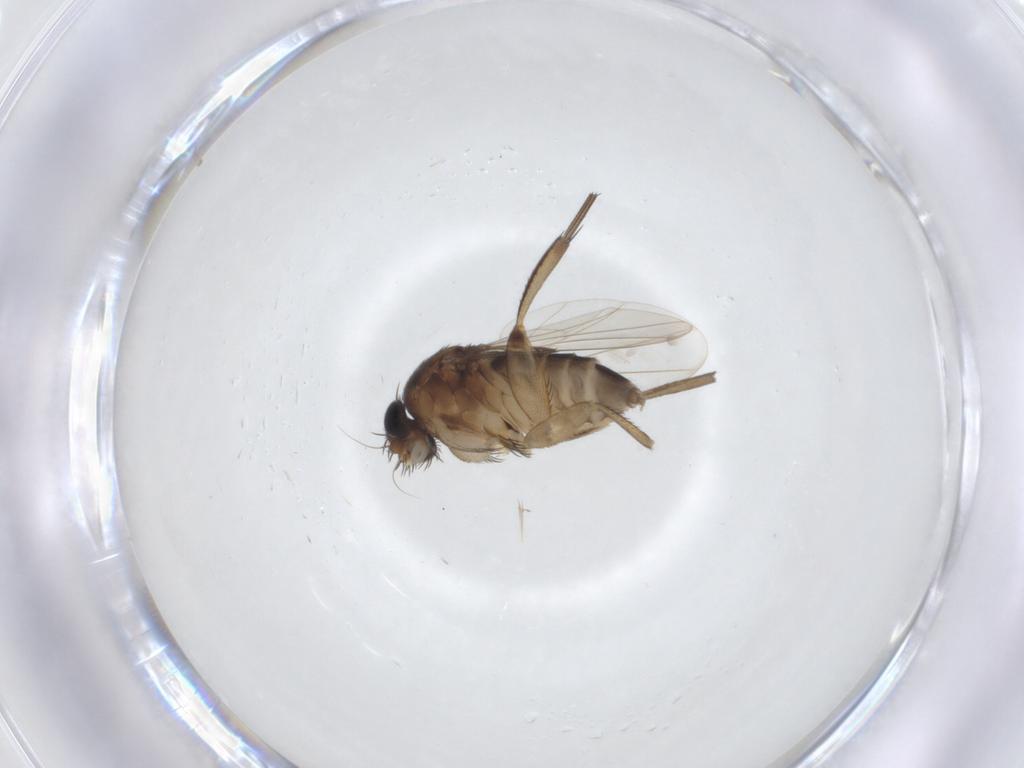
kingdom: Animalia
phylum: Arthropoda
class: Insecta
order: Diptera
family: Phoridae
